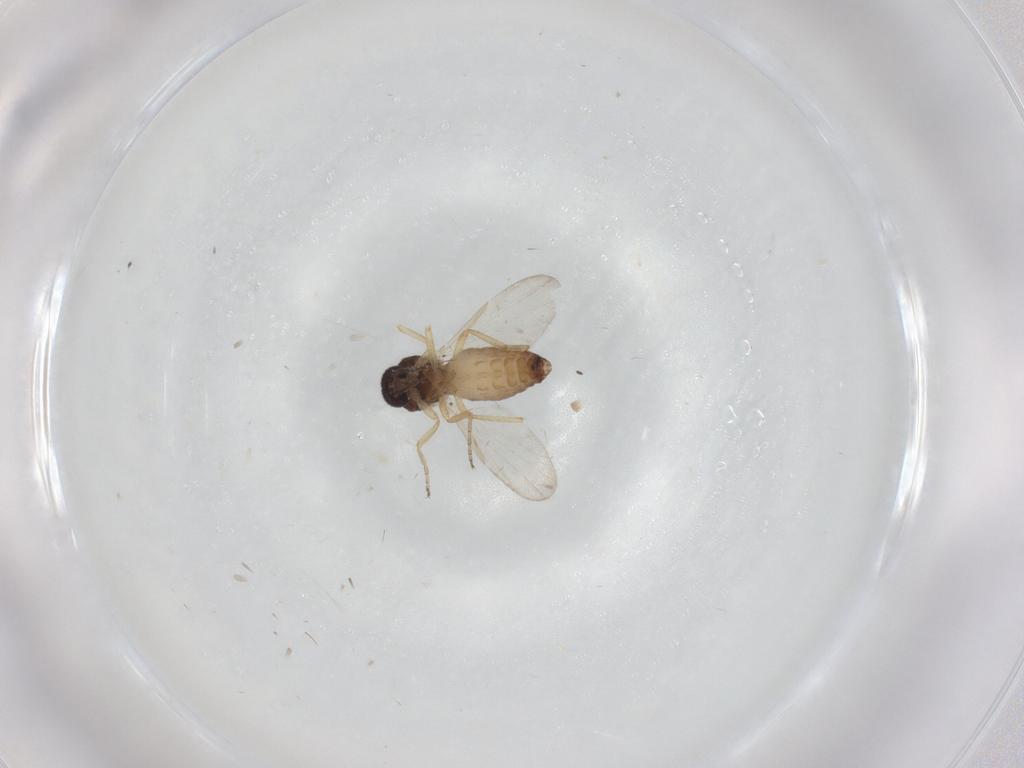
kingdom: Animalia
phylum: Arthropoda
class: Insecta
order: Diptera
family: Ceratopogonidae
